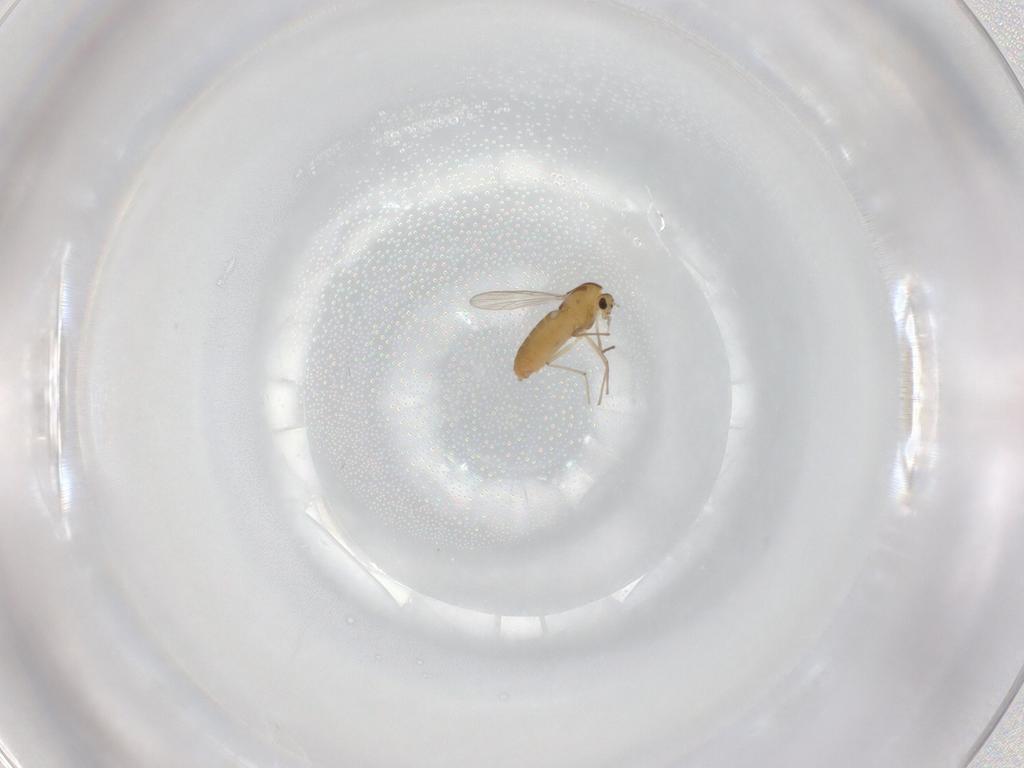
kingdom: Animalia
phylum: Arthropoda
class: Insecta
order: Diptera
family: Chironomidae
